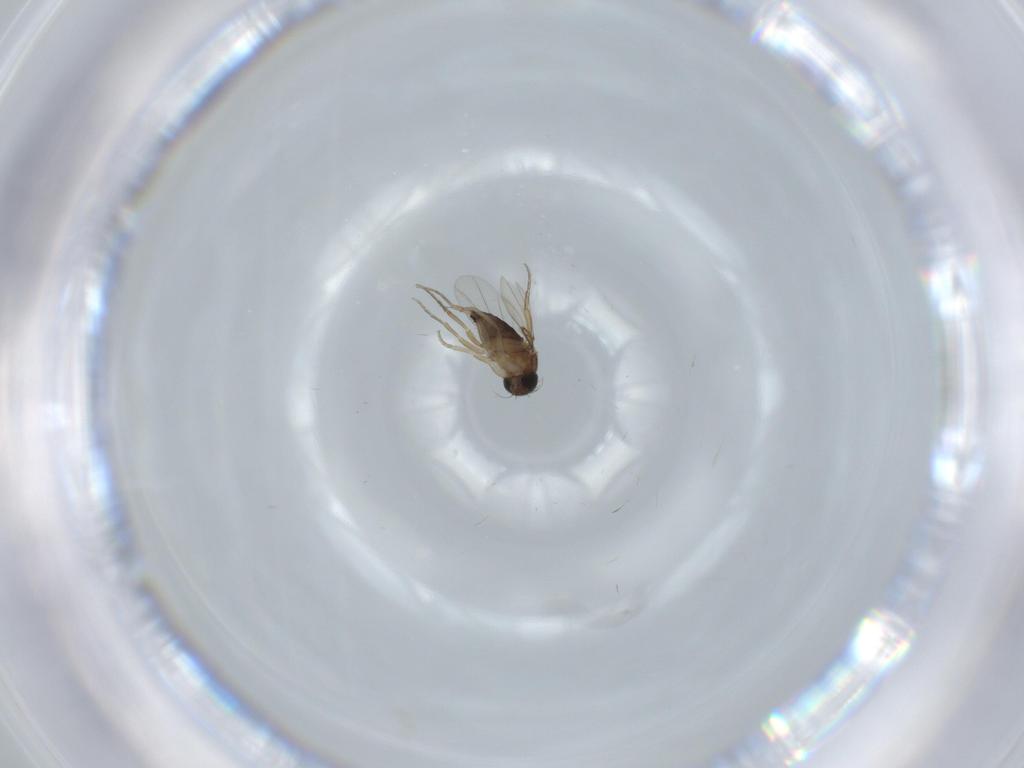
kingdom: Animalia
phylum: Arthropoda
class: Insecta
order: Diptera
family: Phoridae
